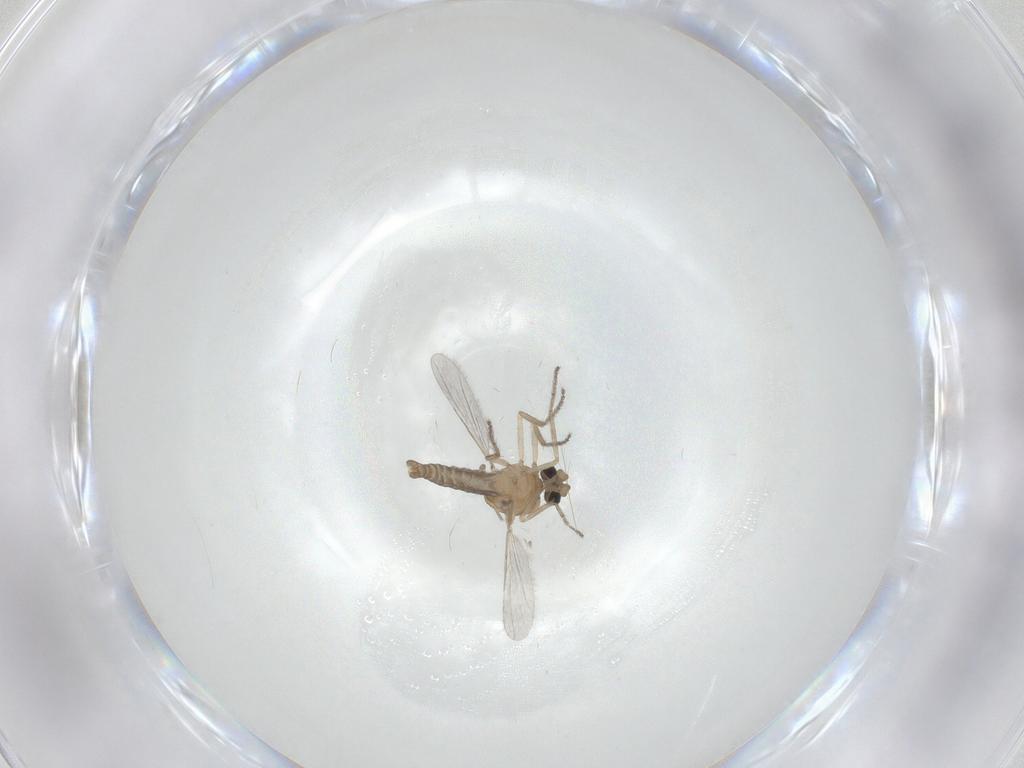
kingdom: Animalia
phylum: Arthropoda
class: Insecta
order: Diptera
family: Ceratopogonidae
